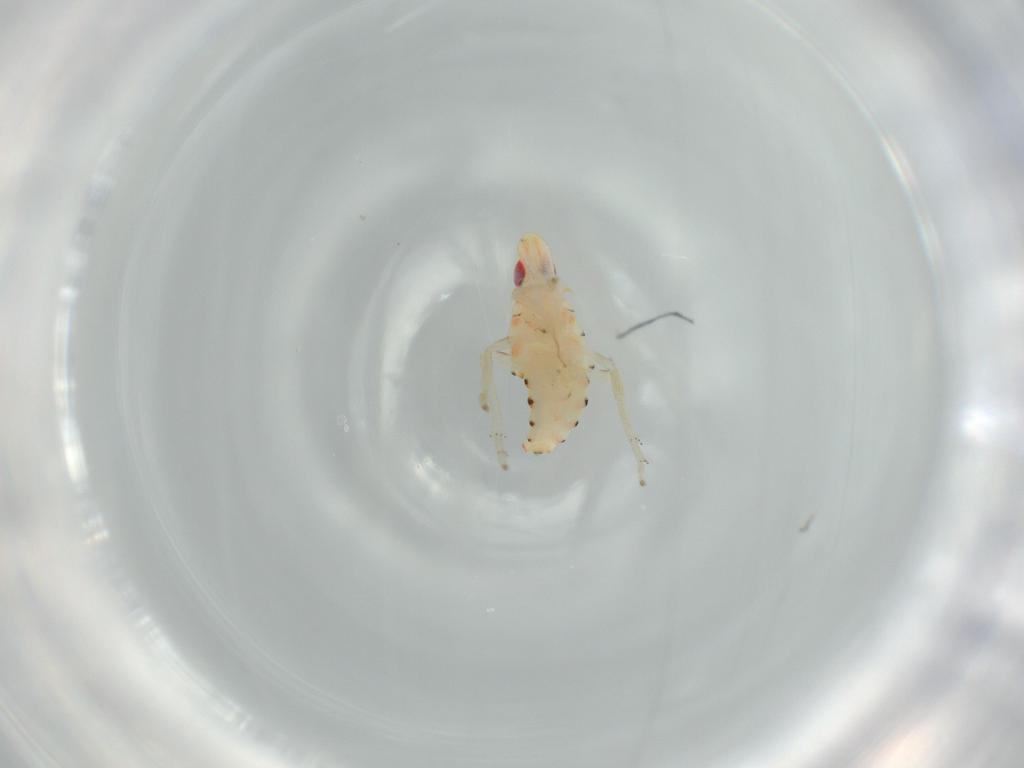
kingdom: Animalia
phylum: Arthropoda
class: Insecta
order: Hemiptera
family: Tropiduchidae
